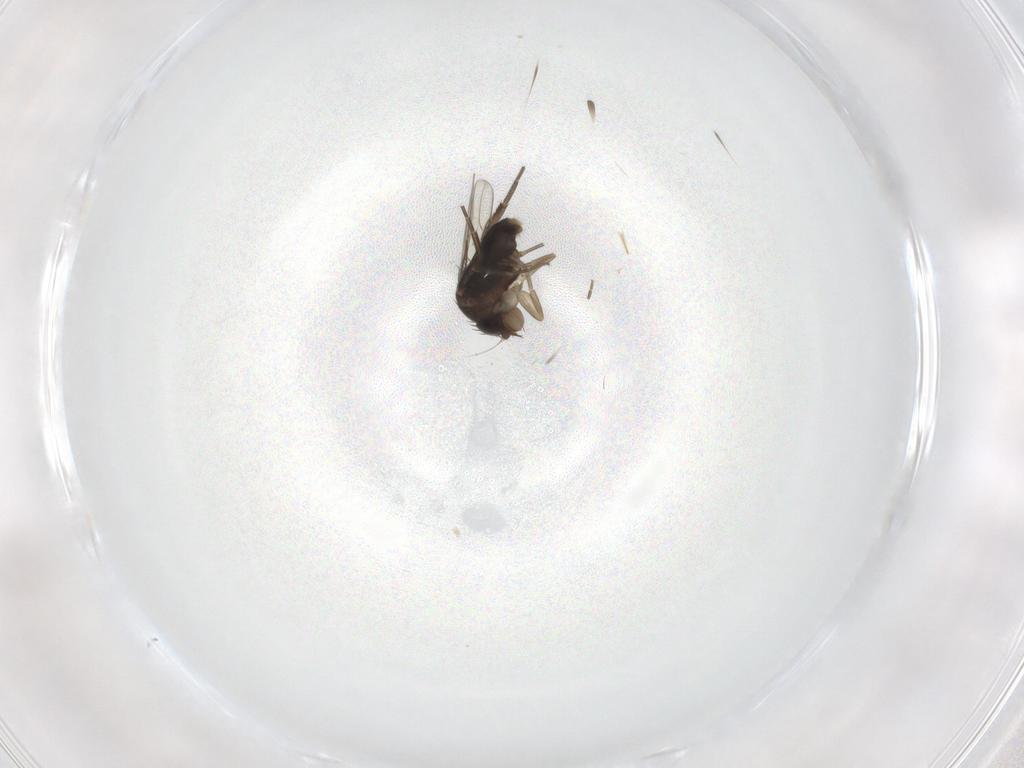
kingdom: Animalia
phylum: Arthropoda
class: Insecta
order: Diptera
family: Phoridae
